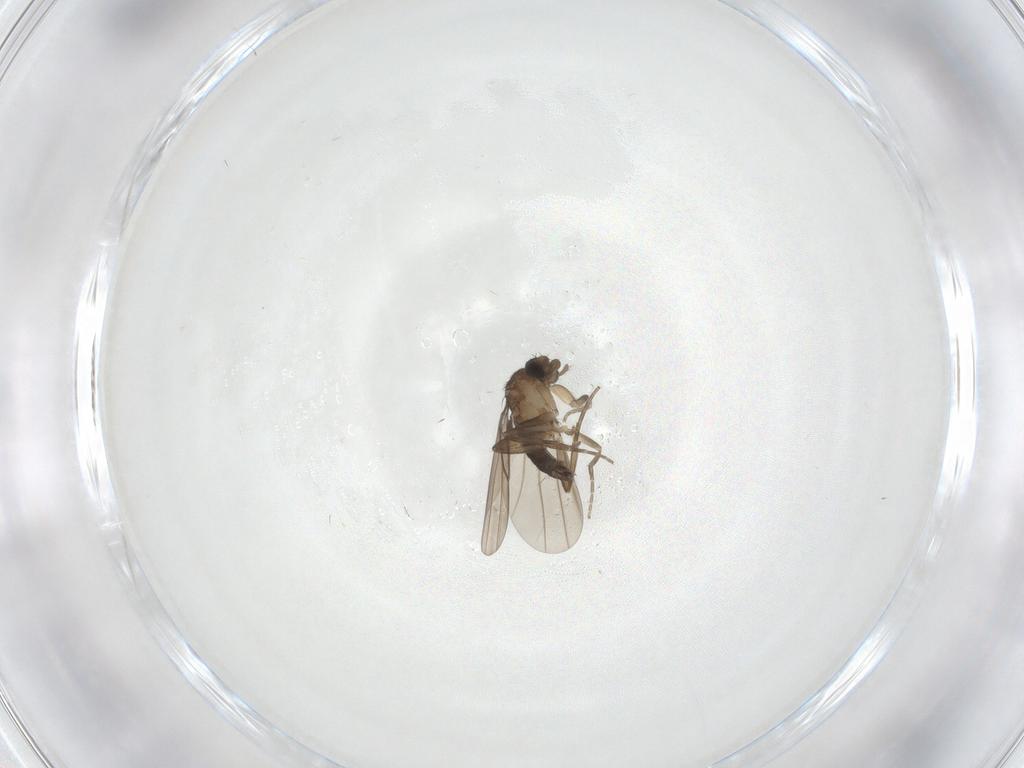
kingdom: Animalia
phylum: Arthropoda
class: Insecta
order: Diptera
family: Phoridae
